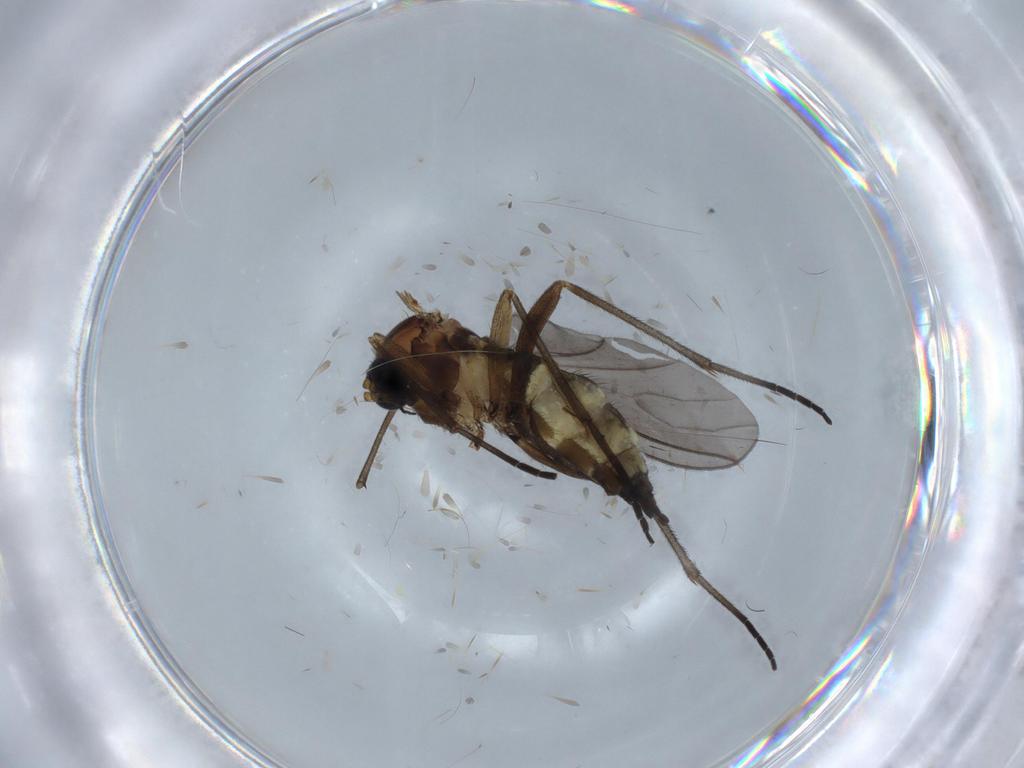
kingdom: Animalia
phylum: Arthropoda
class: Insecta
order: Diptera
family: Sciaridae
